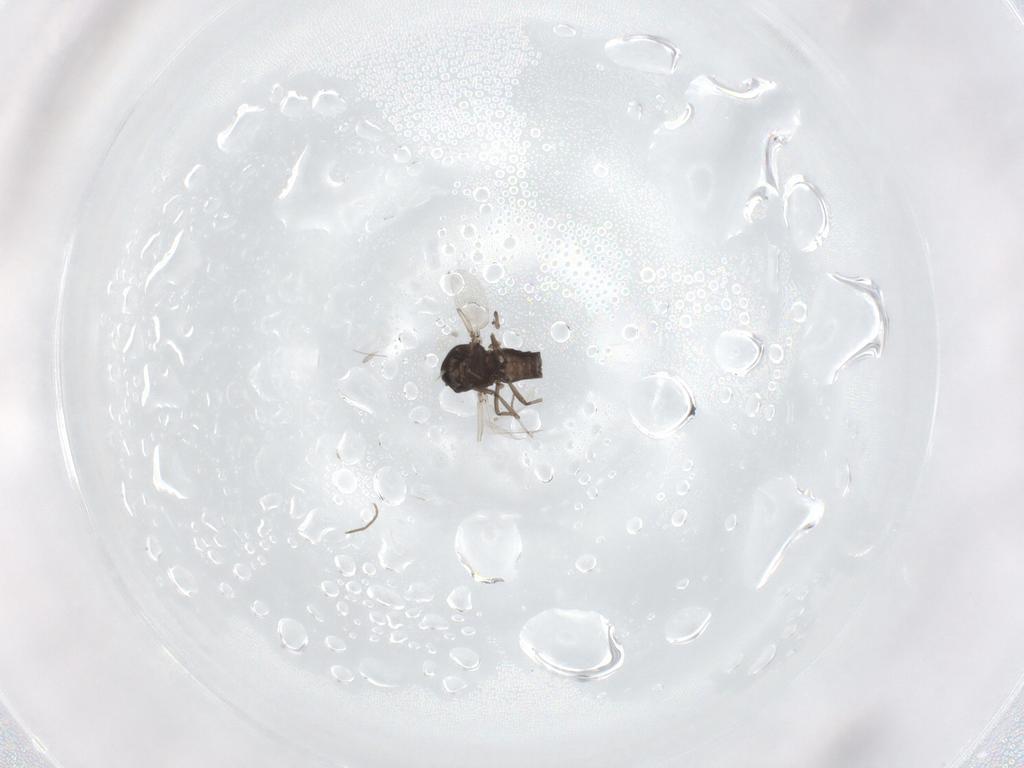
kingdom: Animalia
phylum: Arthropoda
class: Insecta
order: Diptera
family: Ceratopogonidae
